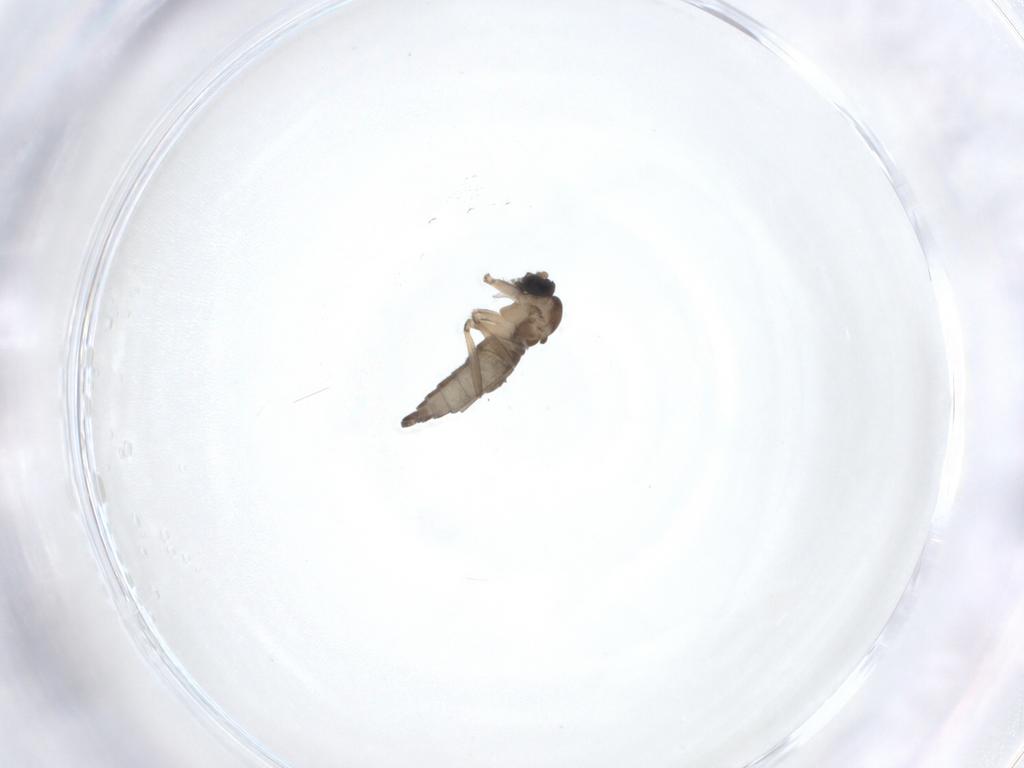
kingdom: Animalia
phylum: Arthropoda
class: Insecta
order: Diptera
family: Sciaridae
